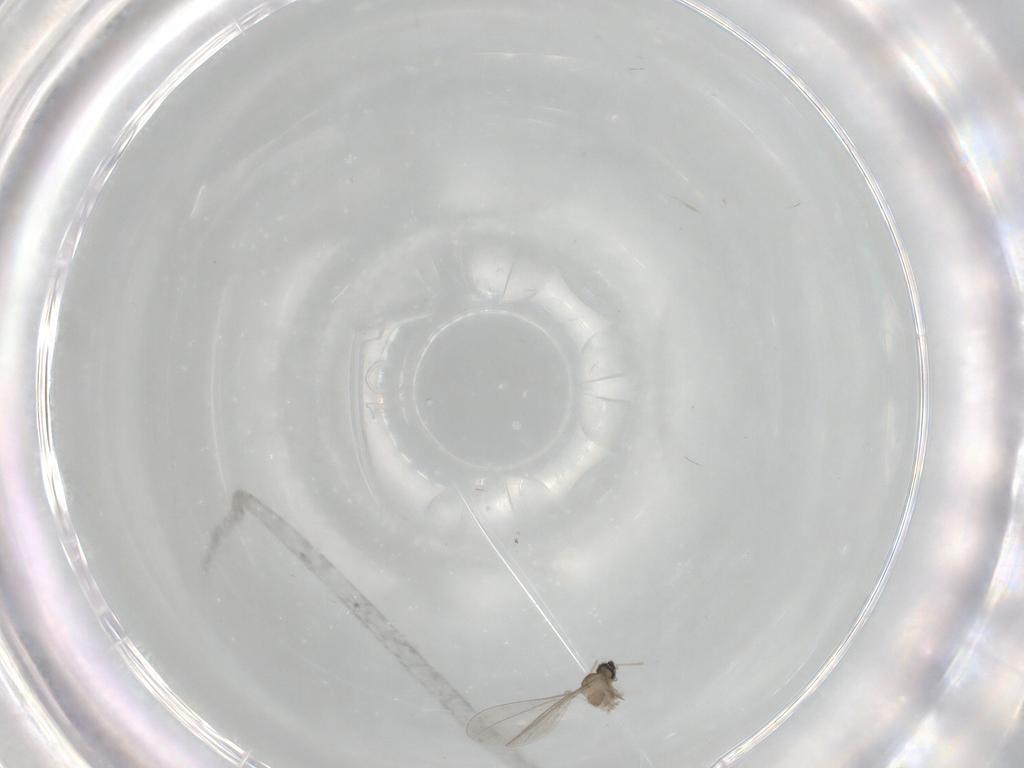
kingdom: Animalia
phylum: Arthropoda
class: Insecta
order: Diptera
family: Cecidomyiidae
